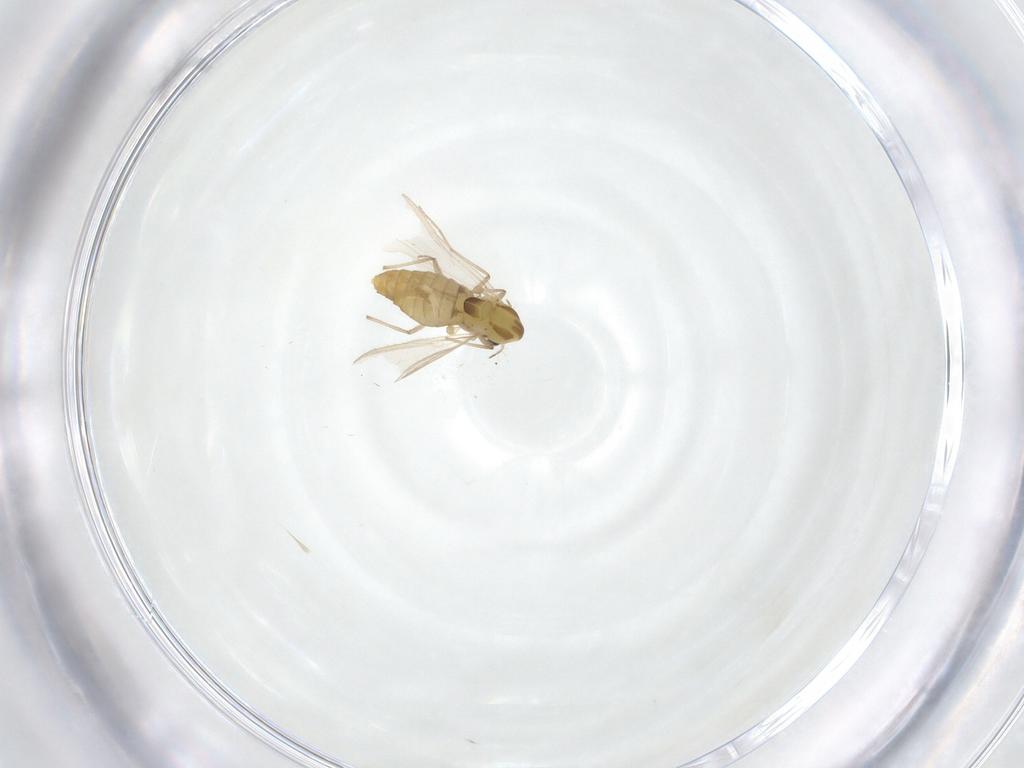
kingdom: Animalia
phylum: Arthropoda
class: Insecta
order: Diptera
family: Chironomidae
